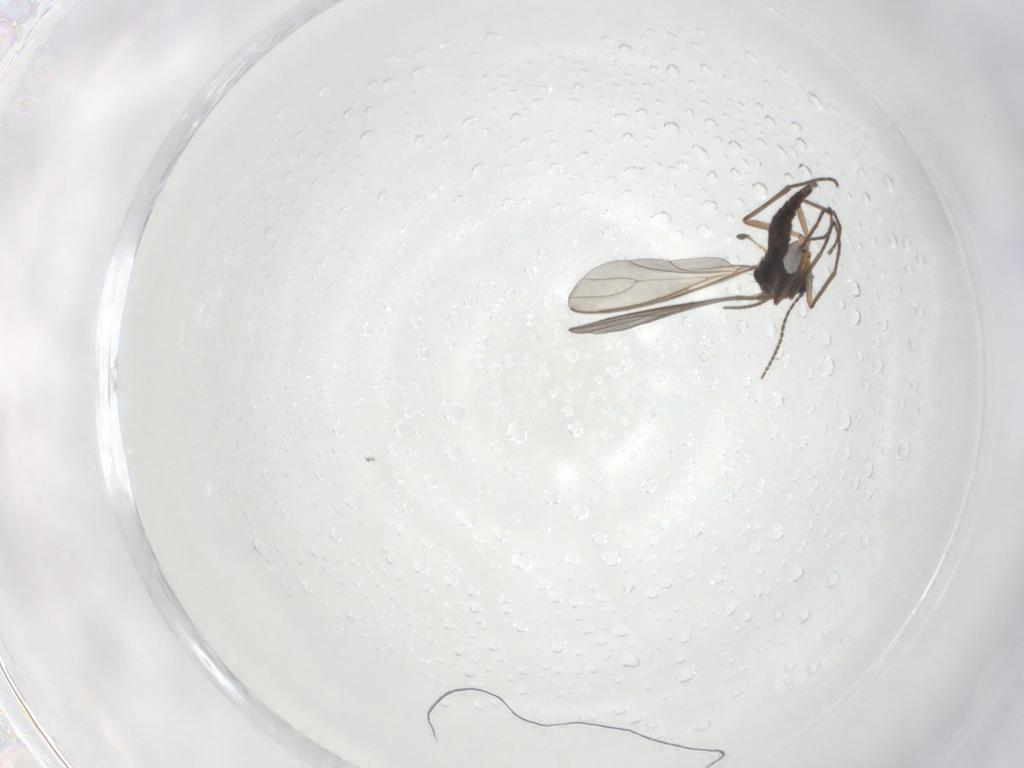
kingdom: Animalia
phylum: Arthropoda
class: Insecta
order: Diptera
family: Sciaridae
